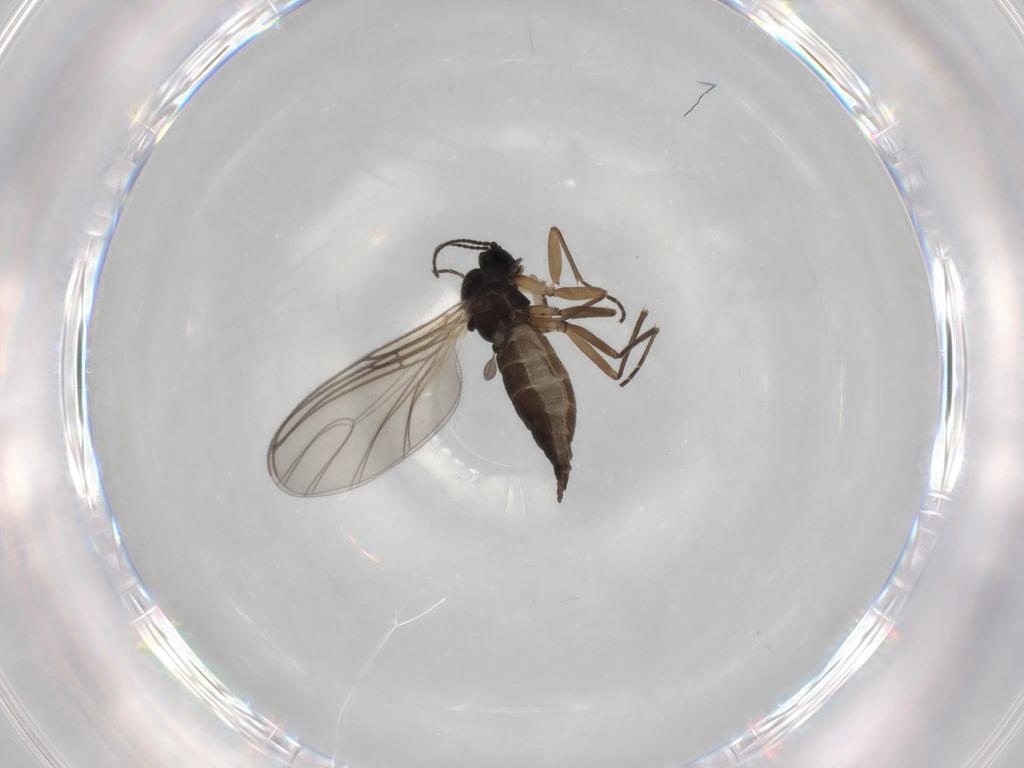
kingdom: Animalia
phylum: Arthropoda
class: Insecta
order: Diptera
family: Sciaridae
